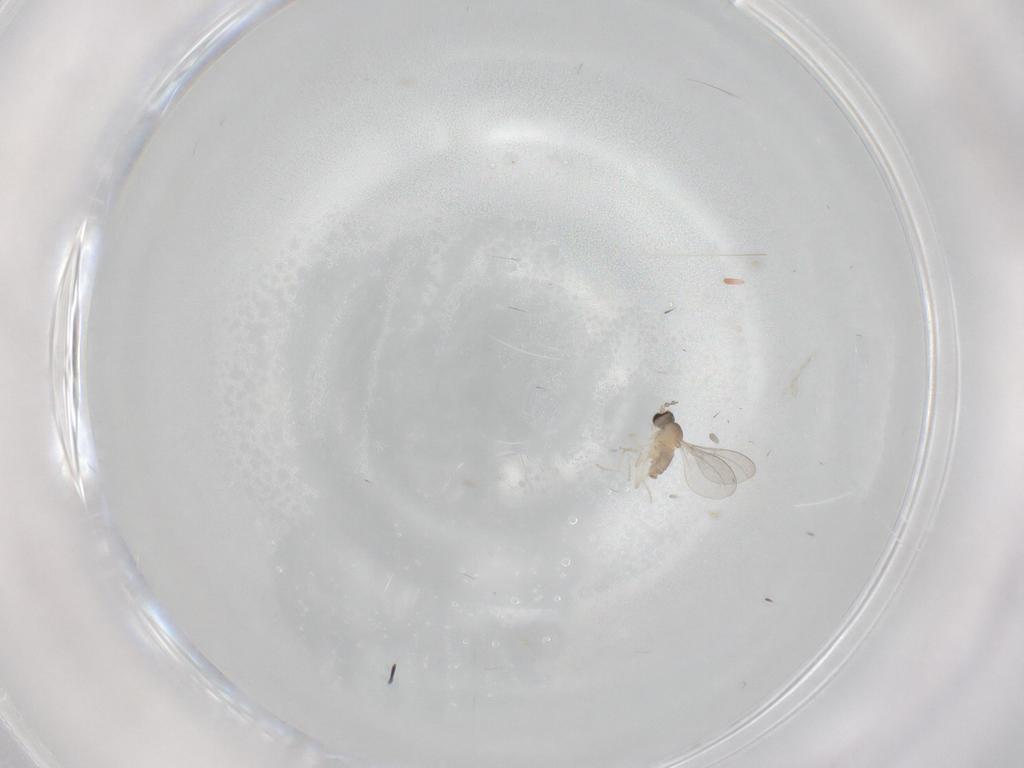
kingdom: Animalia
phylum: Arthropoda
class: Insecta
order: Diptera
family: Cecidomyiidae
